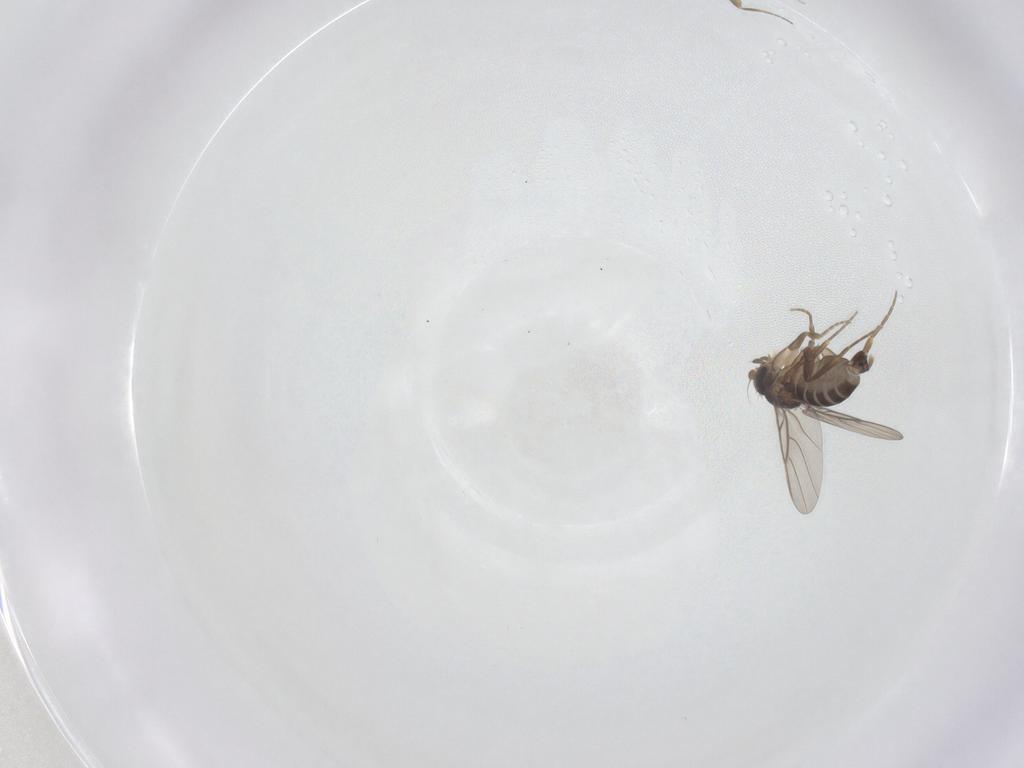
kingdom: Animalia
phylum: Arthropoda
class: Insecta
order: Diptera
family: Phoridae
